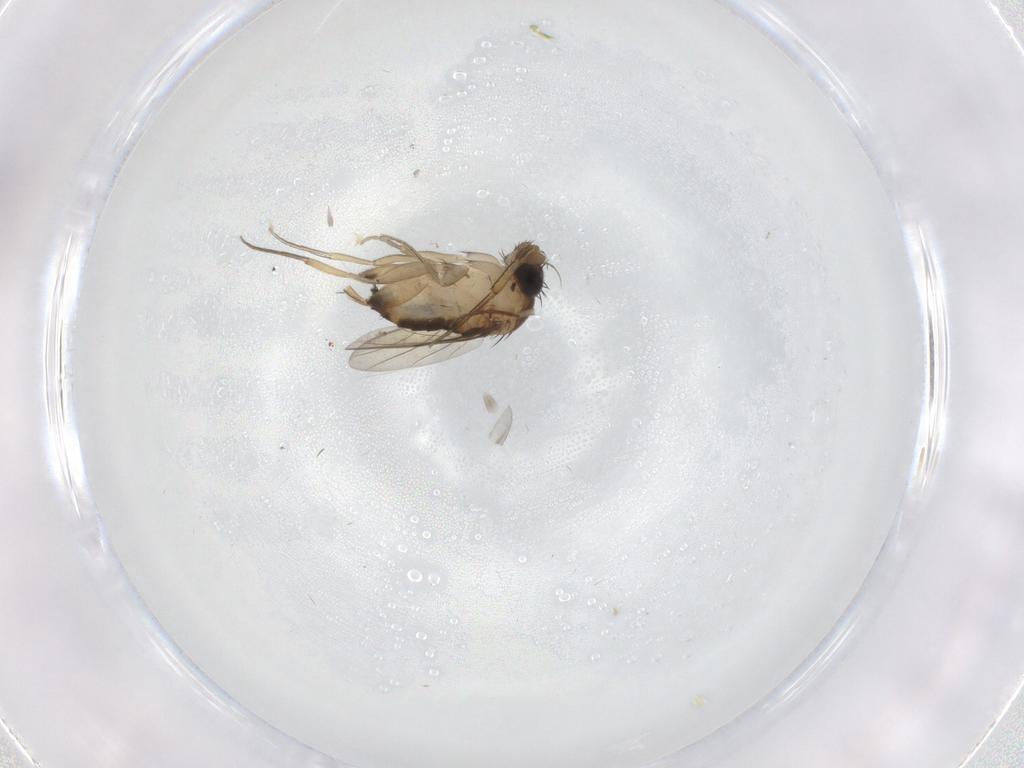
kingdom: Animalia
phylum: Arthropoda
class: Insecta
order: Diptera
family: Phoridae
